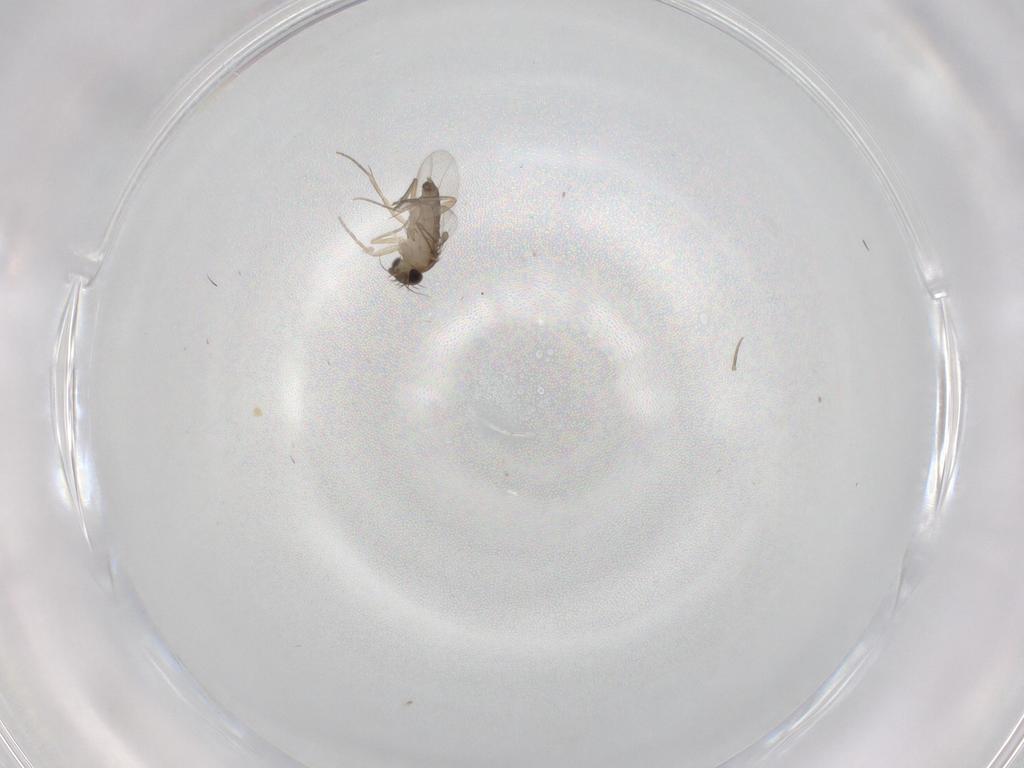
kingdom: Animalia
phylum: Arthropoda
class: Insecta
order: Diptera
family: Phoridae
